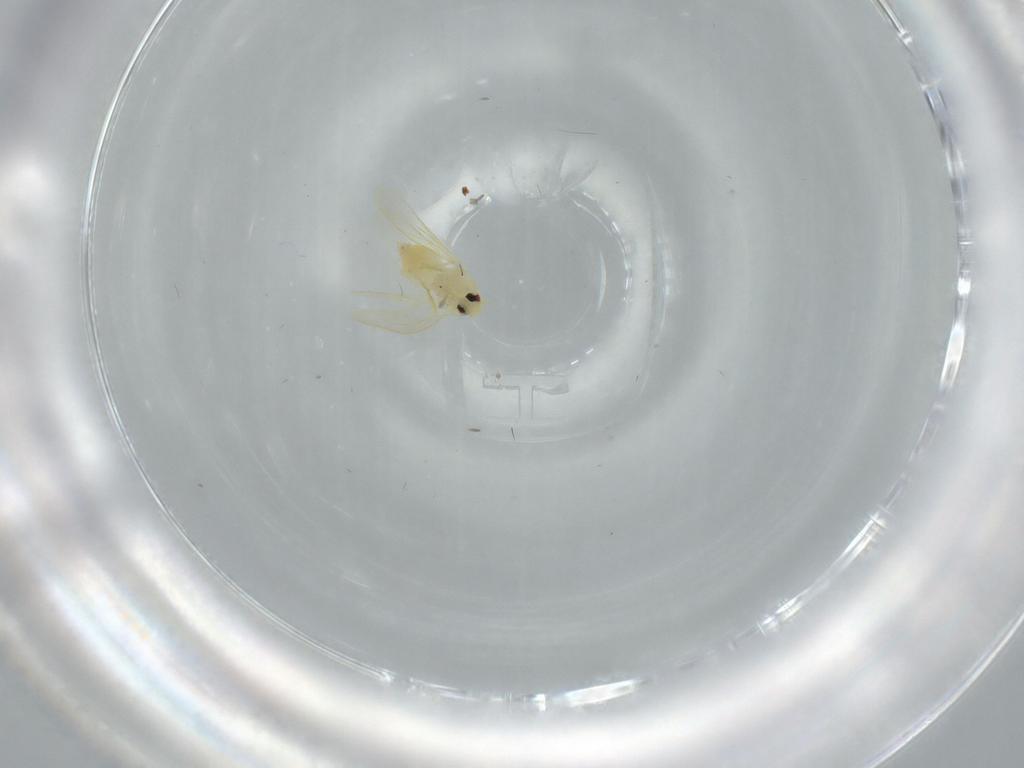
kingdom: Animalia
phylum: Arthropoda
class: Insecta
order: Hemiptera
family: Aleyrodidae
